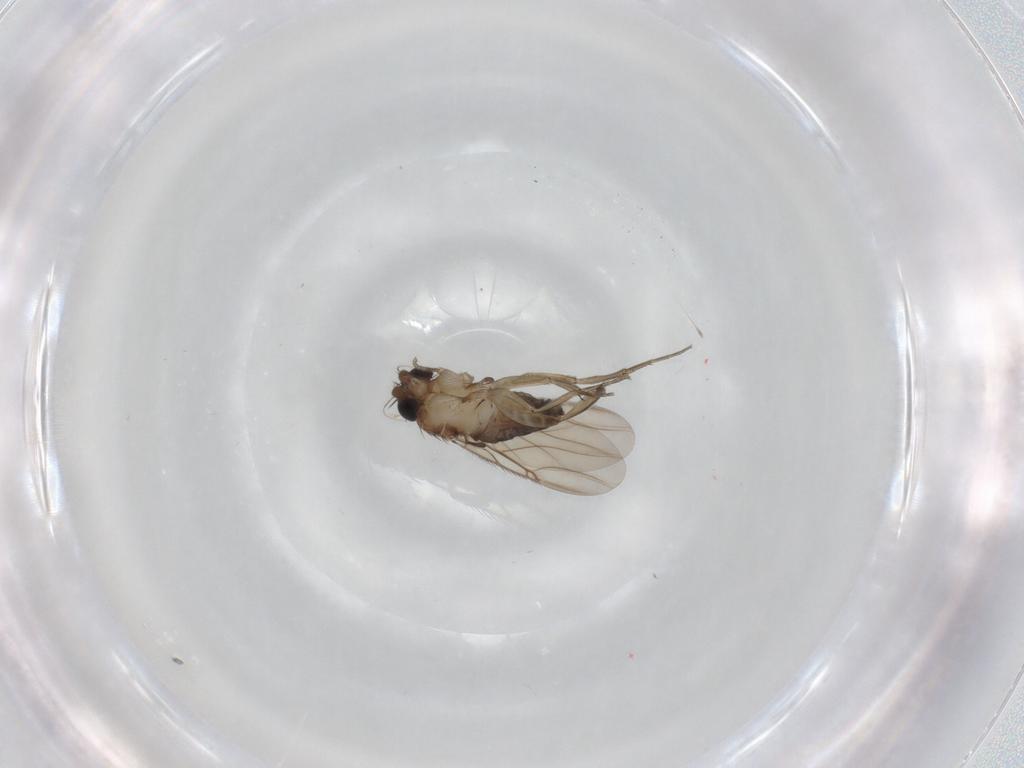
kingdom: Animalia
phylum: Arthropoda
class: Insecta
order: Diptera
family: Phoridae
